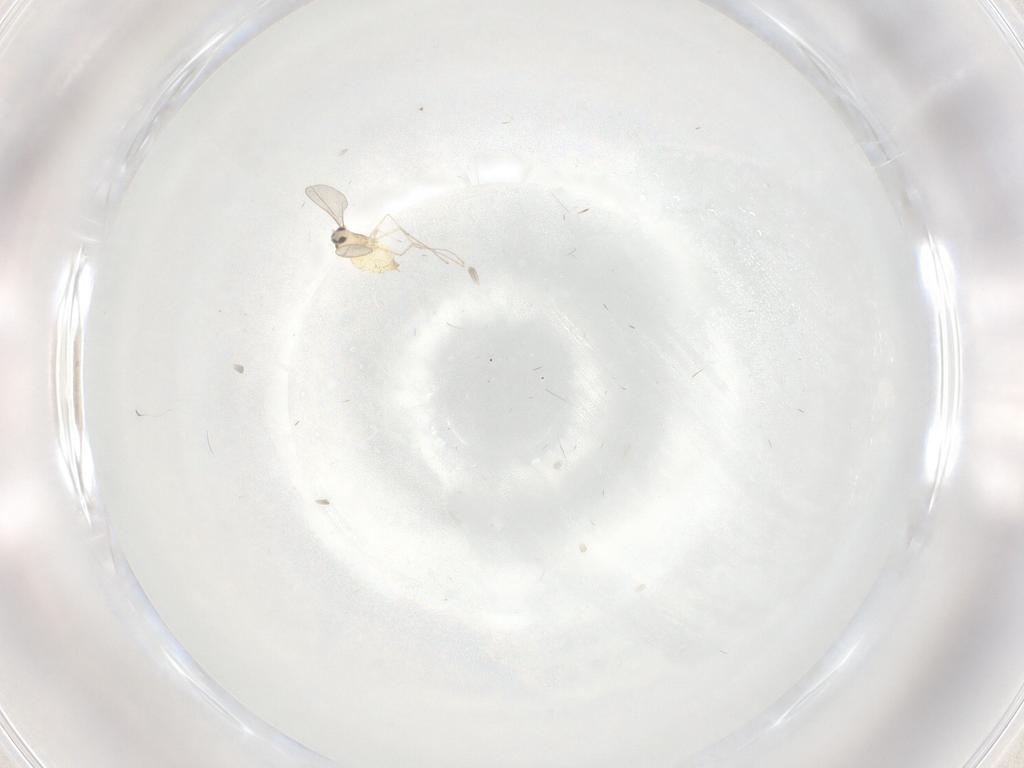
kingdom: Animalia
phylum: Arthropoda
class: Insecta
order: Diptera
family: Cecidomyiidae
